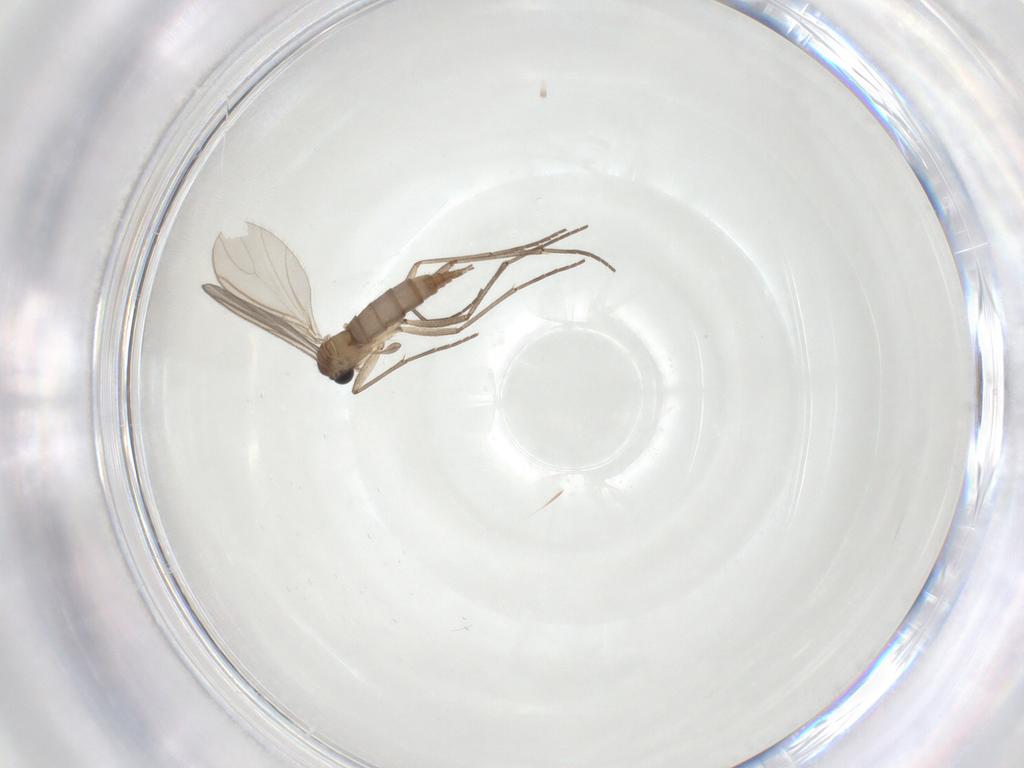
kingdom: Animalia
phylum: Arthropoda
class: Insecta
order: Diptera
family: Sciaridae
